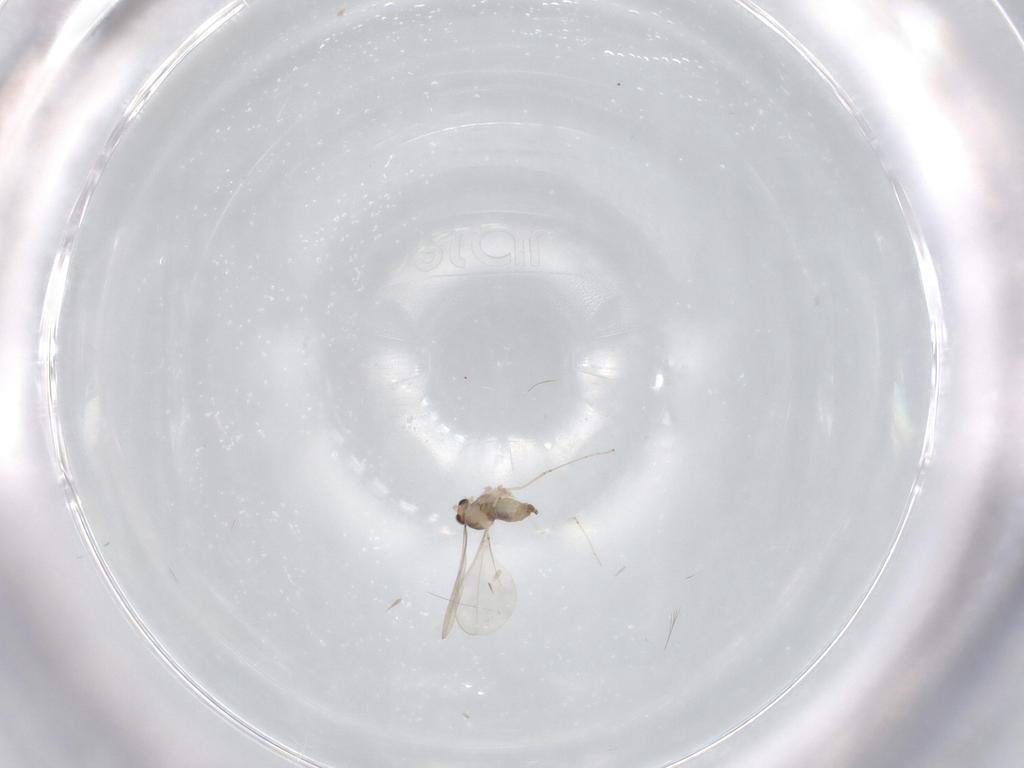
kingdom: Animalia
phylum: Arthropoda
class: Insecta
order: Diptera
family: Cecidomyiidae
